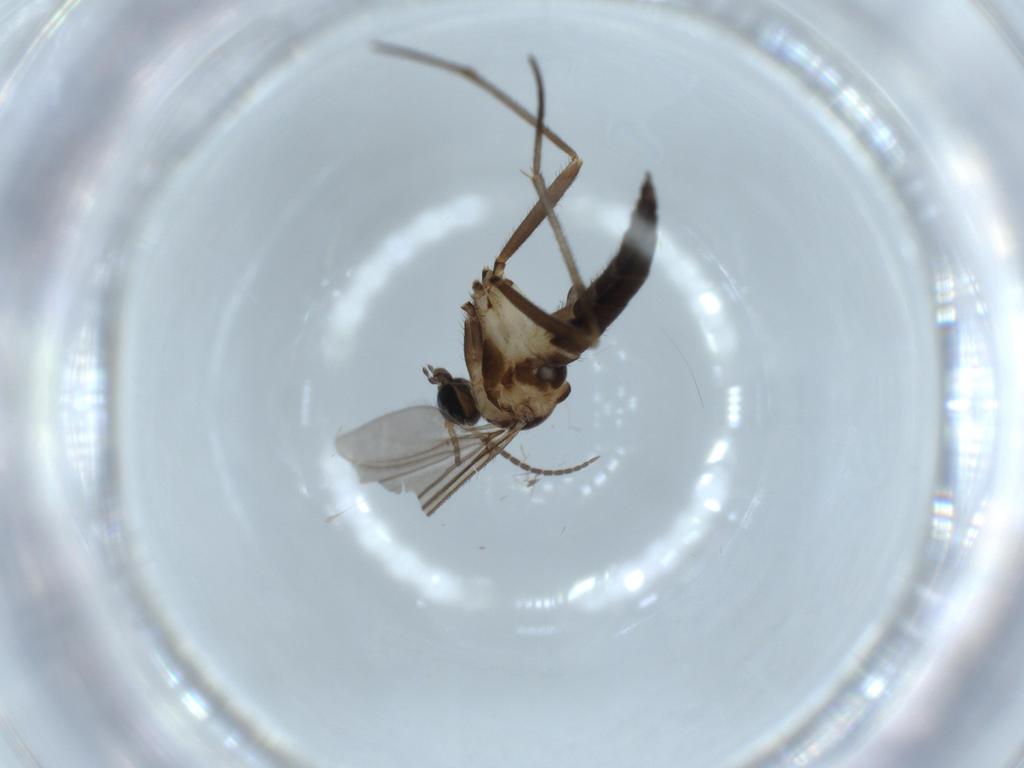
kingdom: Animalia
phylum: Arthropoda
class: Insecta
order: Diptera
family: Sciaridae
